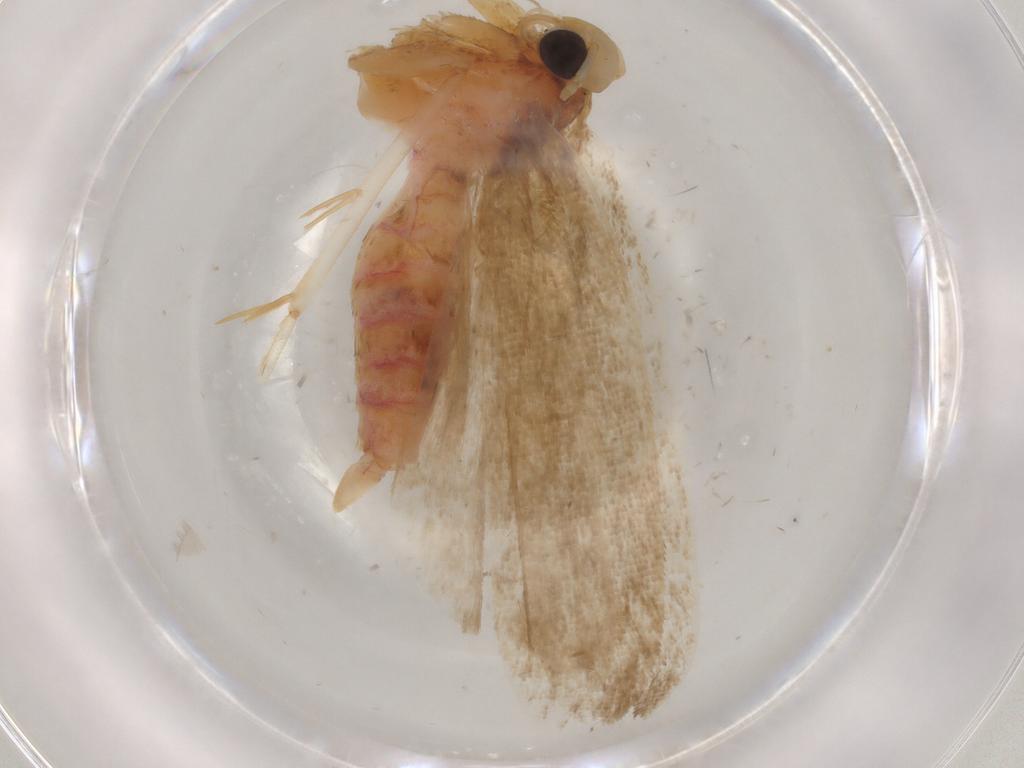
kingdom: Animalia
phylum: Arthropoda
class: Insecta
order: Lepidoptera
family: Autostichidae
